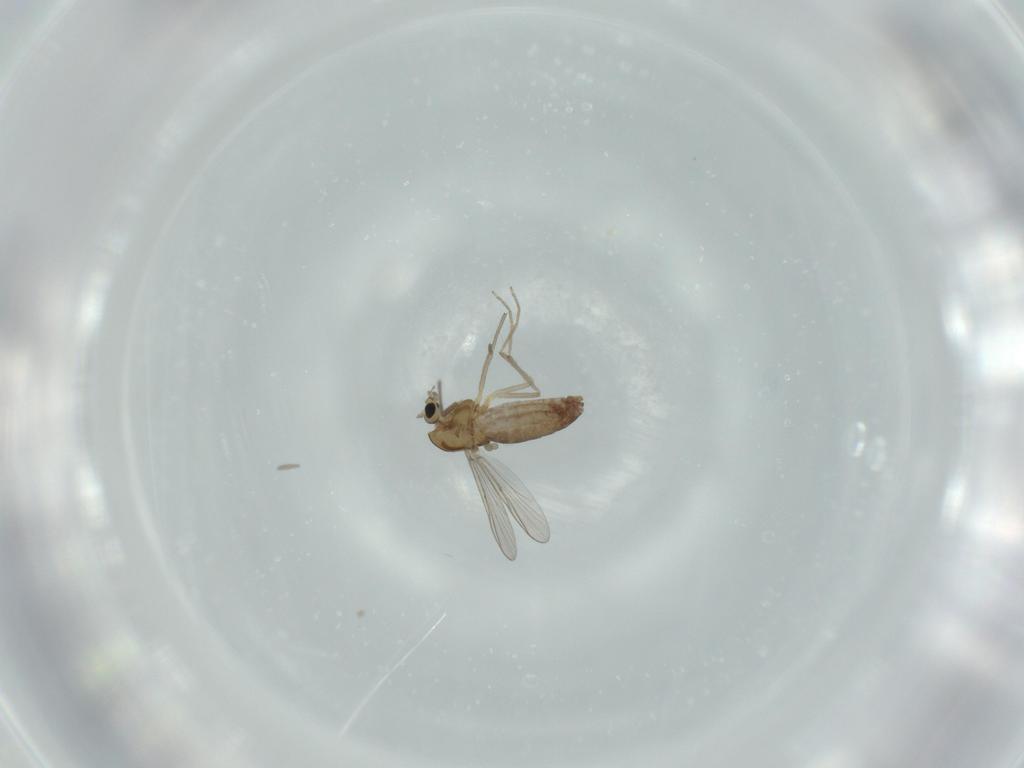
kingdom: Animalia
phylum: Arthropoda
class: Insecta
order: Diptera
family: Chironomidae
